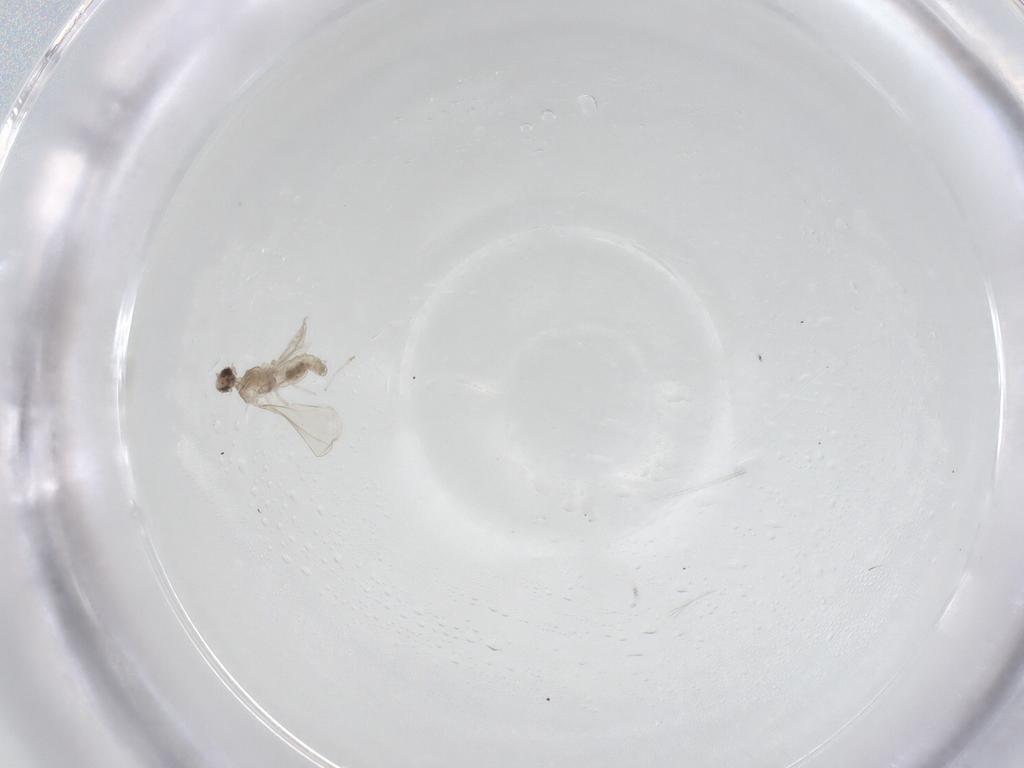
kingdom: Animalia
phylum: Arthropoda
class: Insecta
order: Diptera
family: Cecidomyiidae
